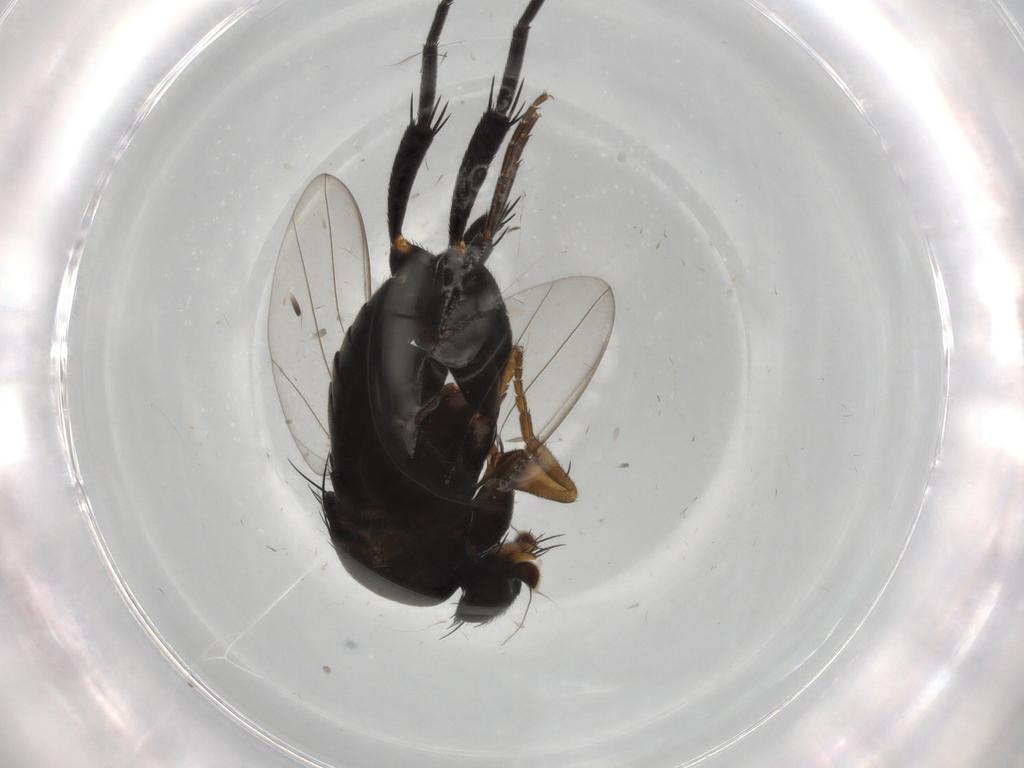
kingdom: Animalia
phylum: Arthropoda
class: Insecta
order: Diptera
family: Phoridae
